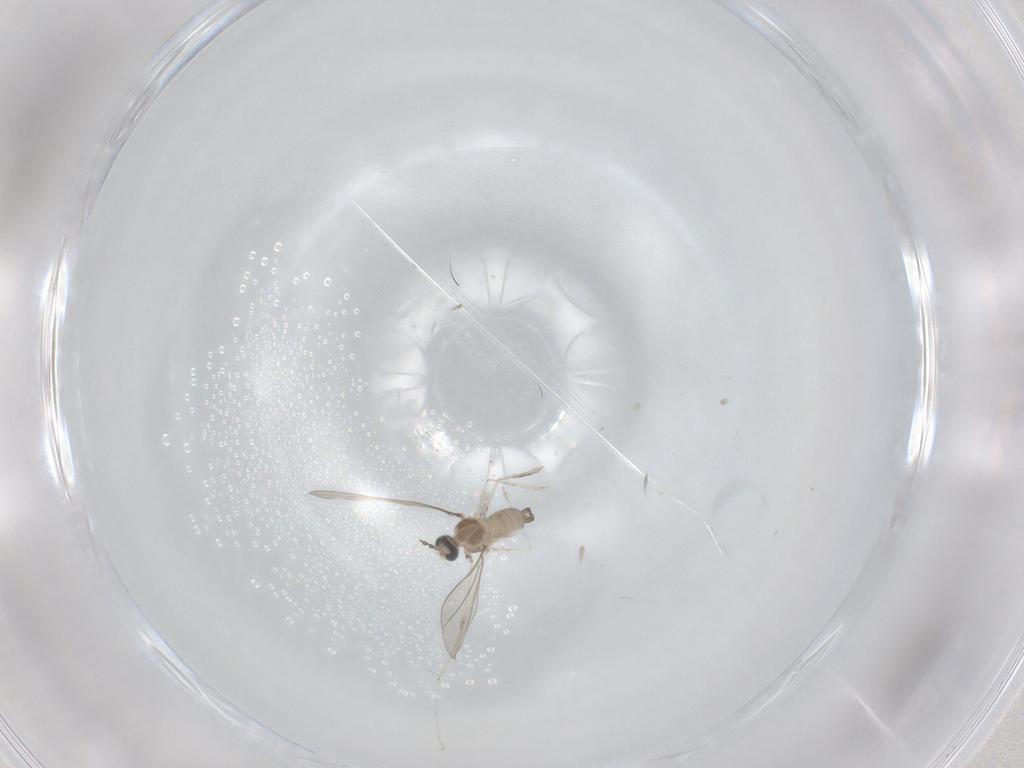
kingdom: Animalia
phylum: Arthropoda
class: Insecta
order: Diptera
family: Cecidomyiidae
